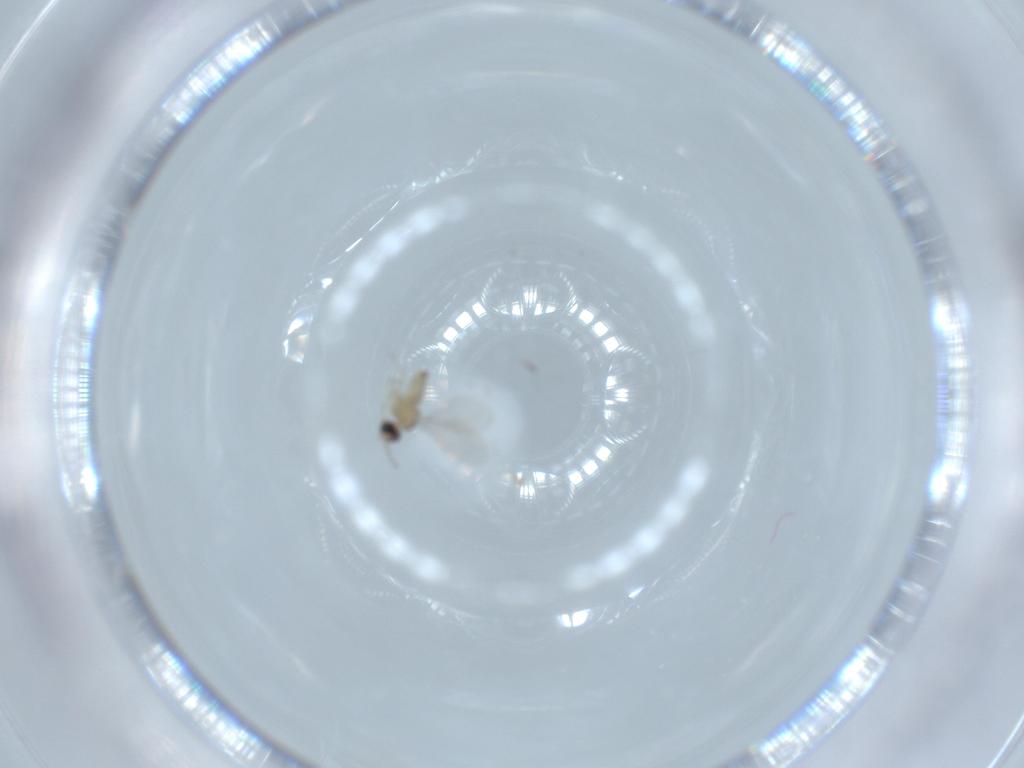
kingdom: Animalia
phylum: Arthropoda
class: Insecta
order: Diptera
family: Cecidomyiidae
